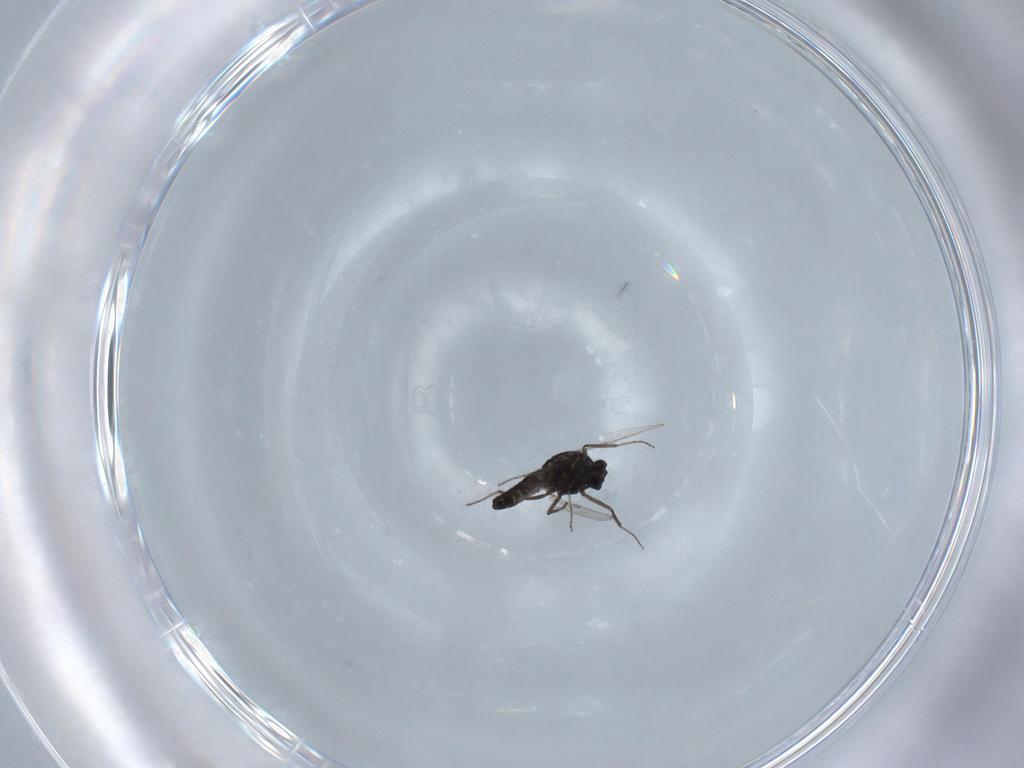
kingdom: Animalia
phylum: Arthropoda
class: Insecta
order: Diptera
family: Ceratopogonidae
